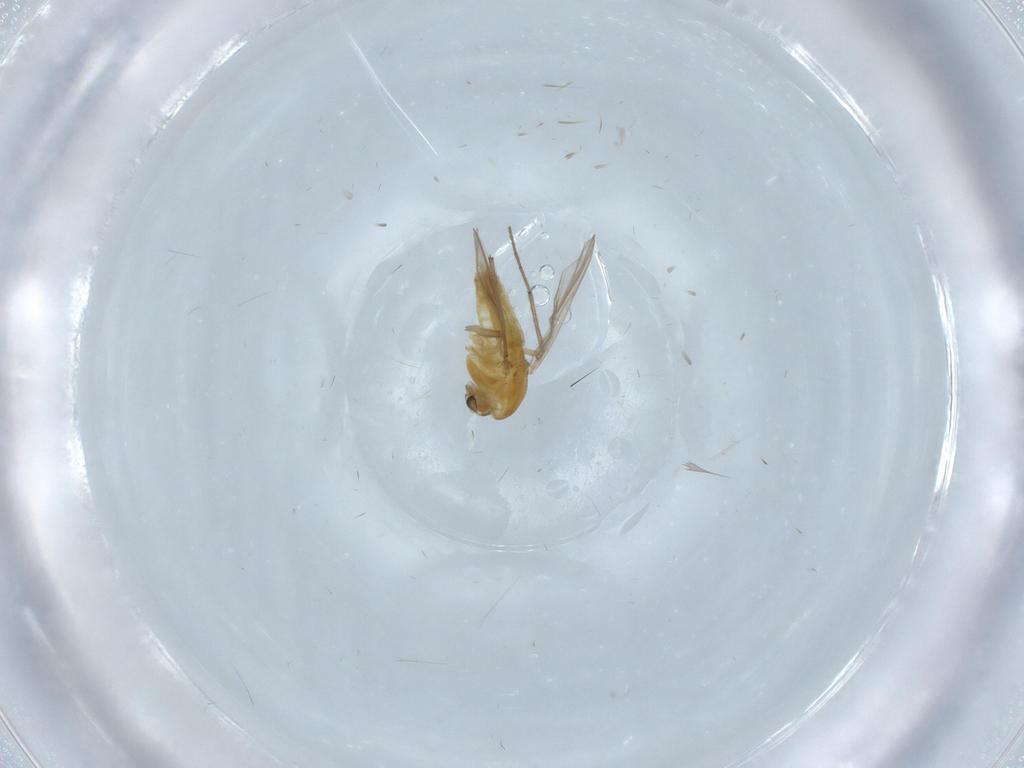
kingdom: Animalia
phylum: Arthropoda
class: Insecta
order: Diptera
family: Chironomidae
